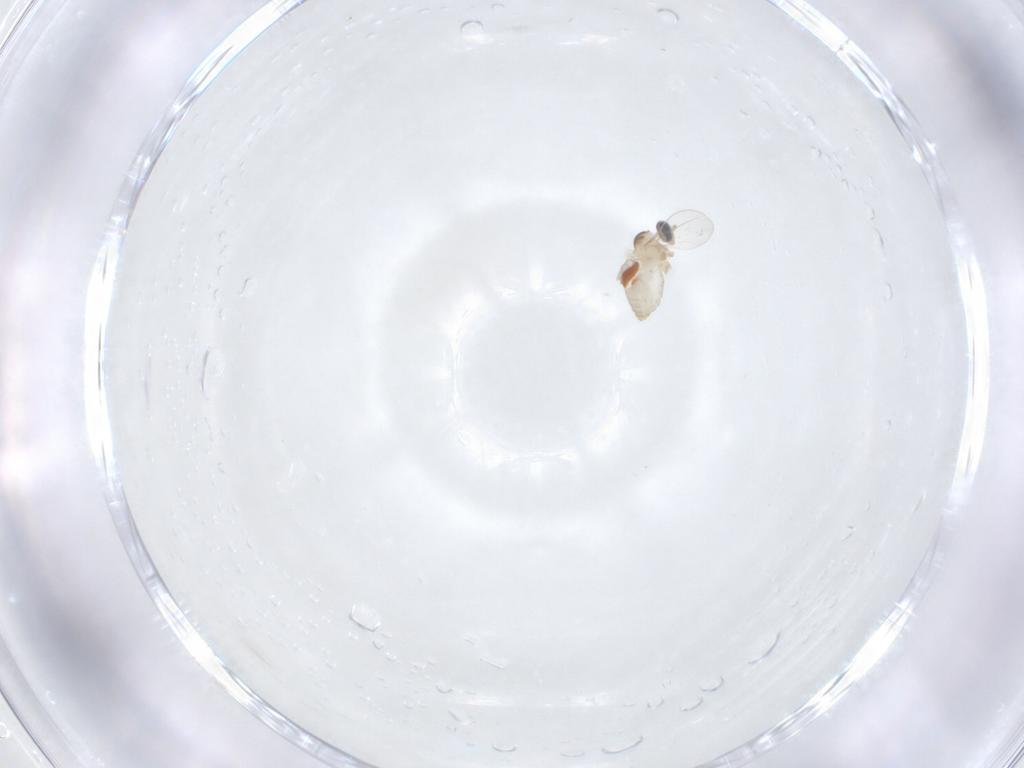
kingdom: Animalia
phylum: Arthropoda
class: Insecta
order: Diptera
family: Cecidomyiidae
